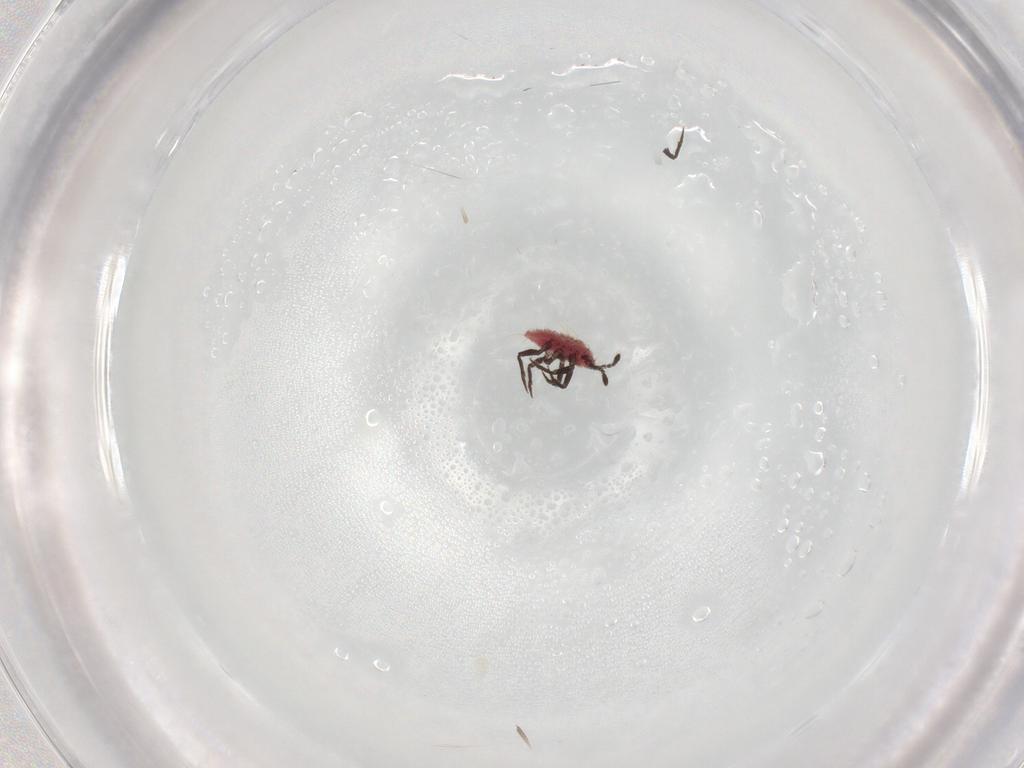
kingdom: Animalia
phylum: Arthropoda
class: Insecta
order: Hemiptera
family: Monophlebidae
